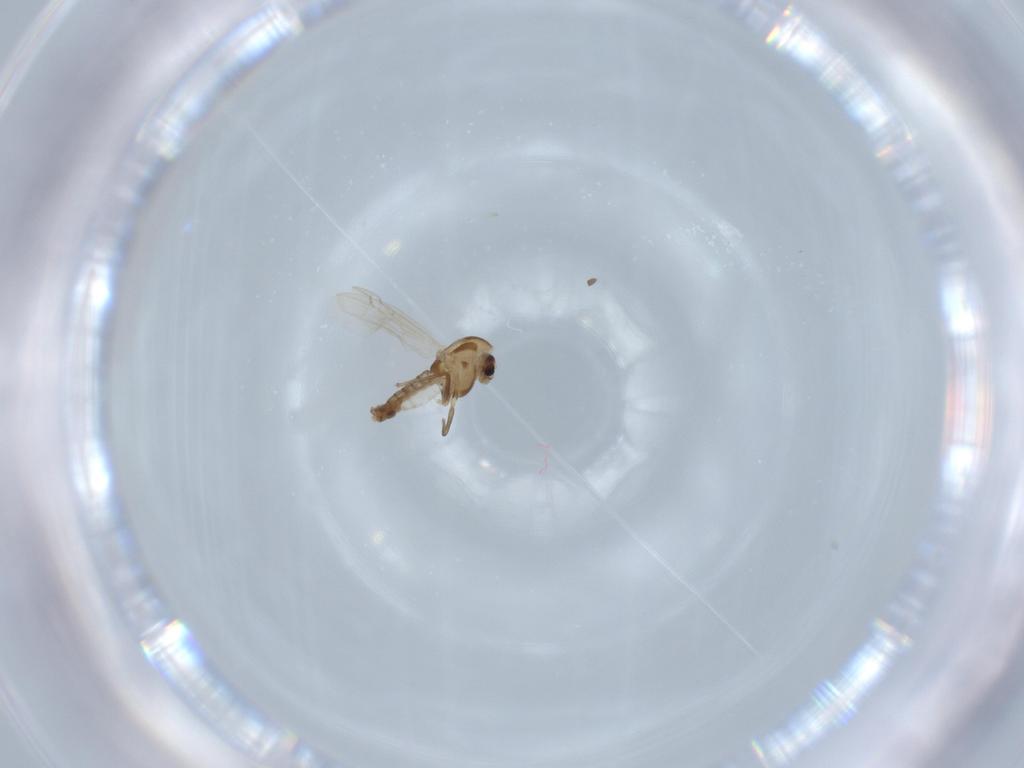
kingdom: Animalia
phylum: Arthropoda
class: Insecta
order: Diptera
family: Chironomidae
